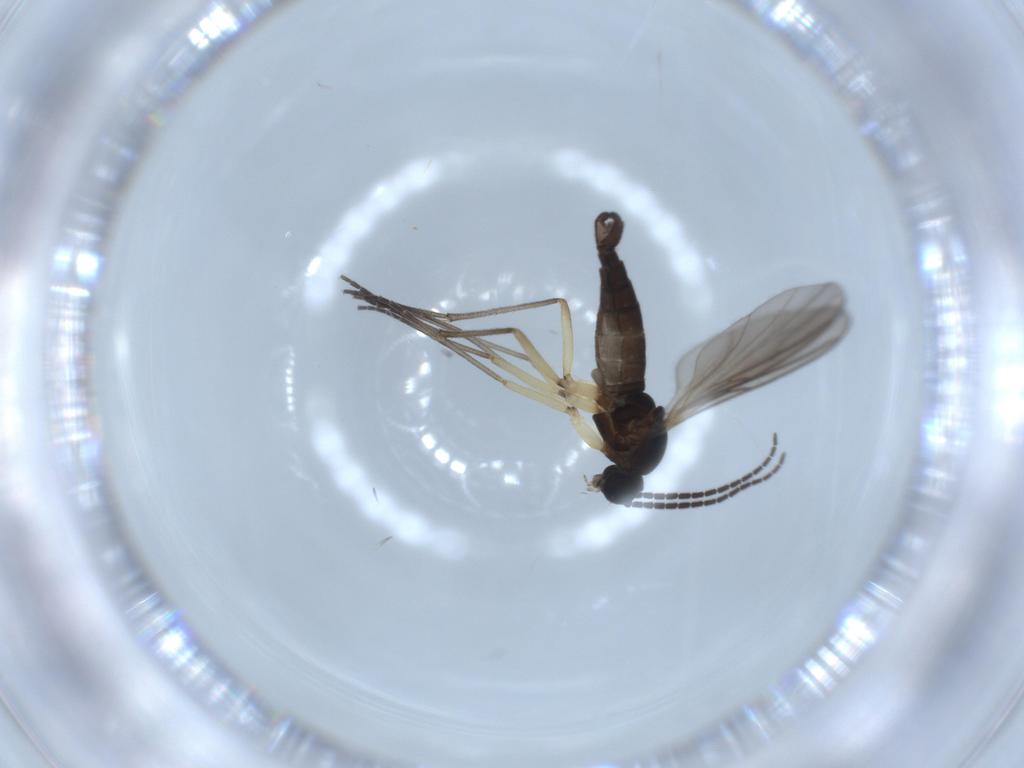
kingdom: Animalia
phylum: Arthropoda
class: Insecta
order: Diptera
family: Sciaridae
